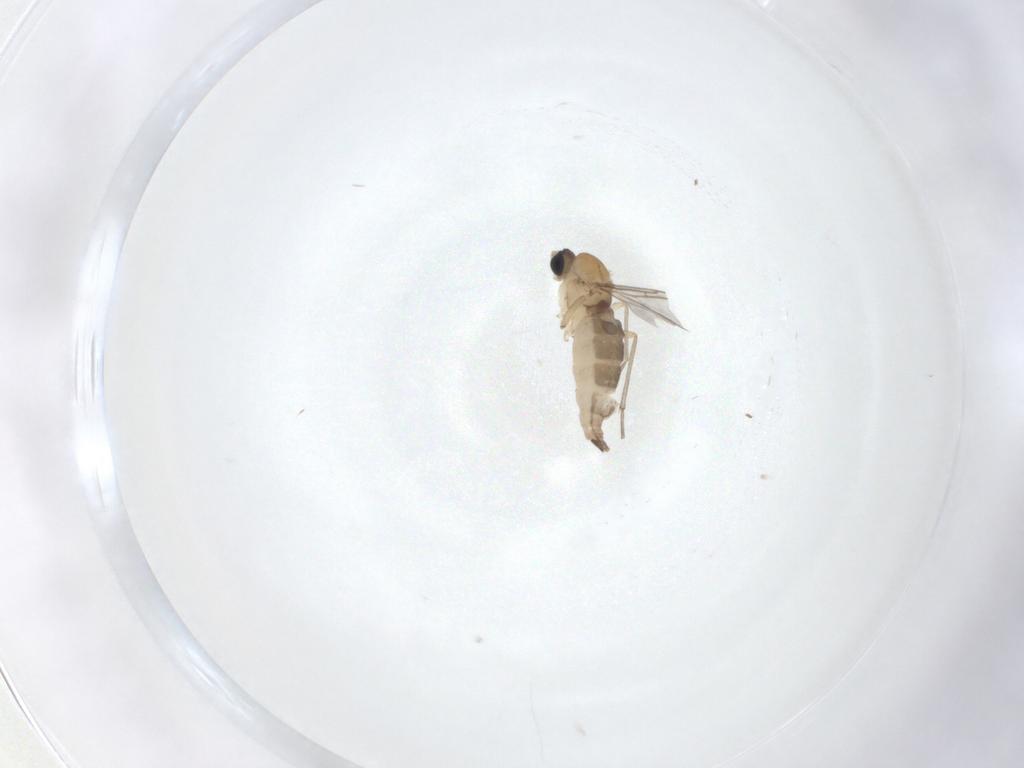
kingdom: Animalia
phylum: Arthropoda
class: Insecta
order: Diptera
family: Sciaridae
